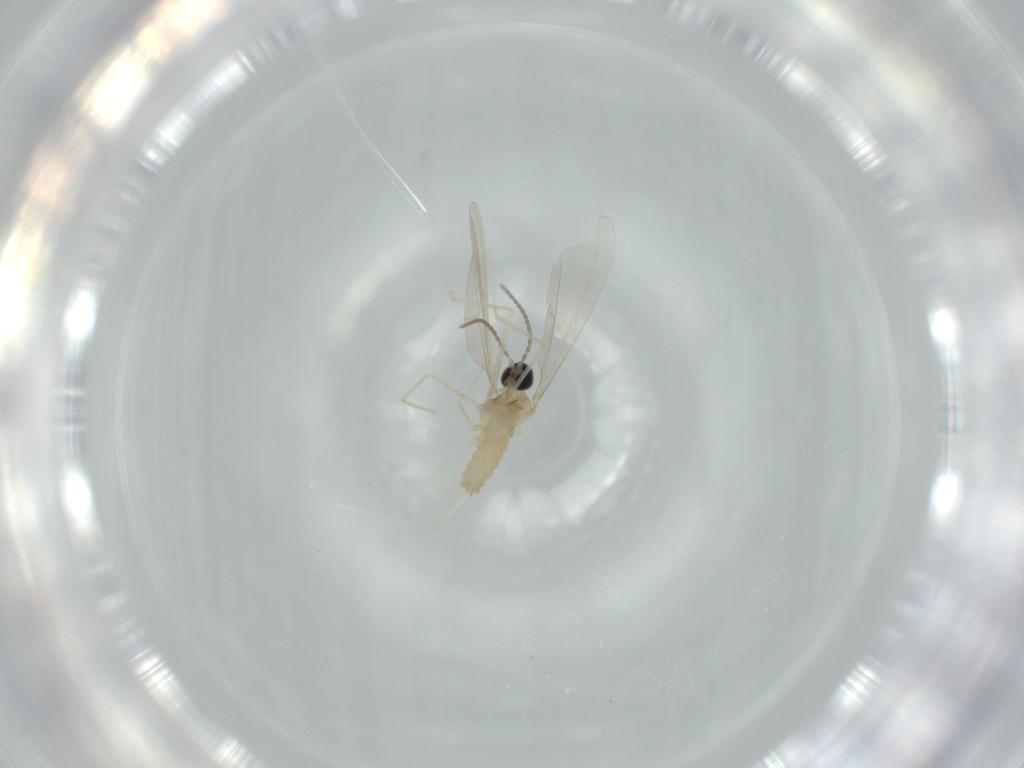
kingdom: Animalia
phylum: Arthropoda
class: Insecta
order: Diptera
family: Cecidomyiidae
